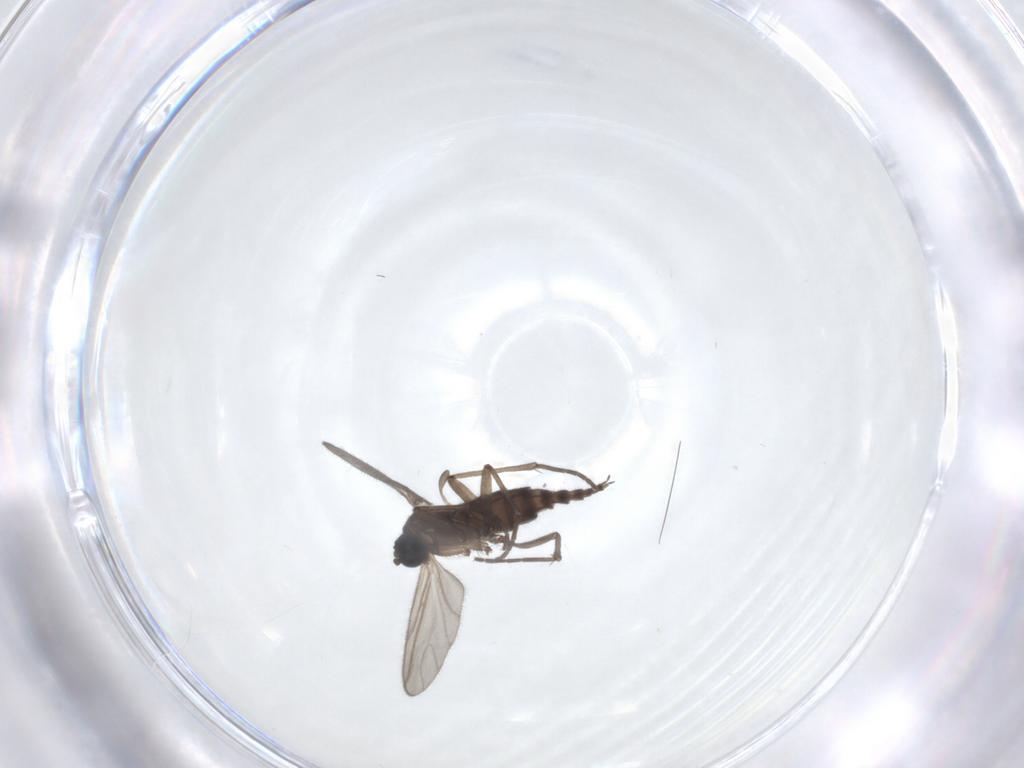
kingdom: Animalia
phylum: Arthropoda
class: Insecta
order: Diptera
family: Sciaridae
